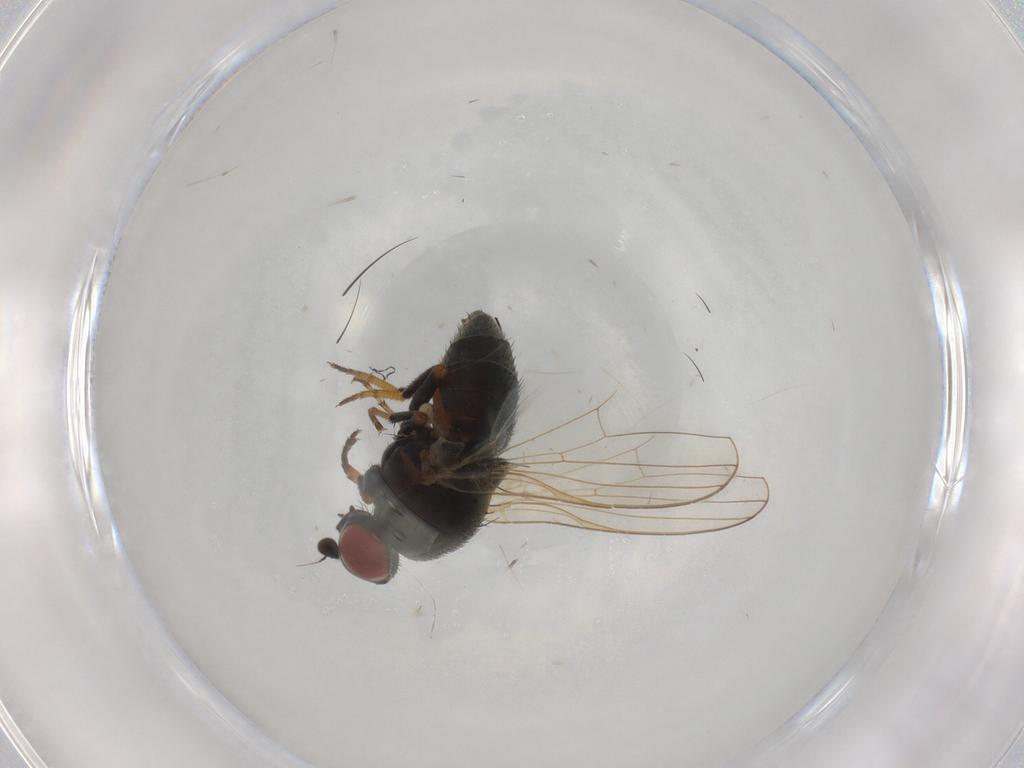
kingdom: Animalia
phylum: Arthropoda
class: Insecta
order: Diptera
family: Chamaemyiidae
